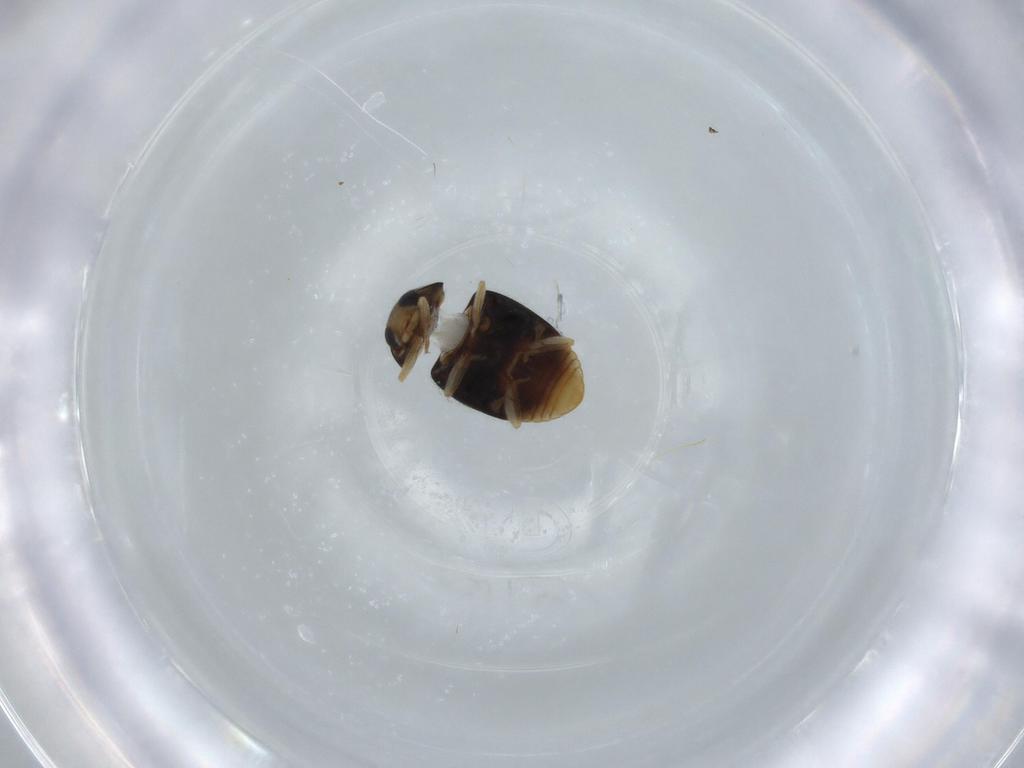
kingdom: Animalia
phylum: Arthropoda
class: Insecta
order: Coleoptera
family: Coccinellidae
